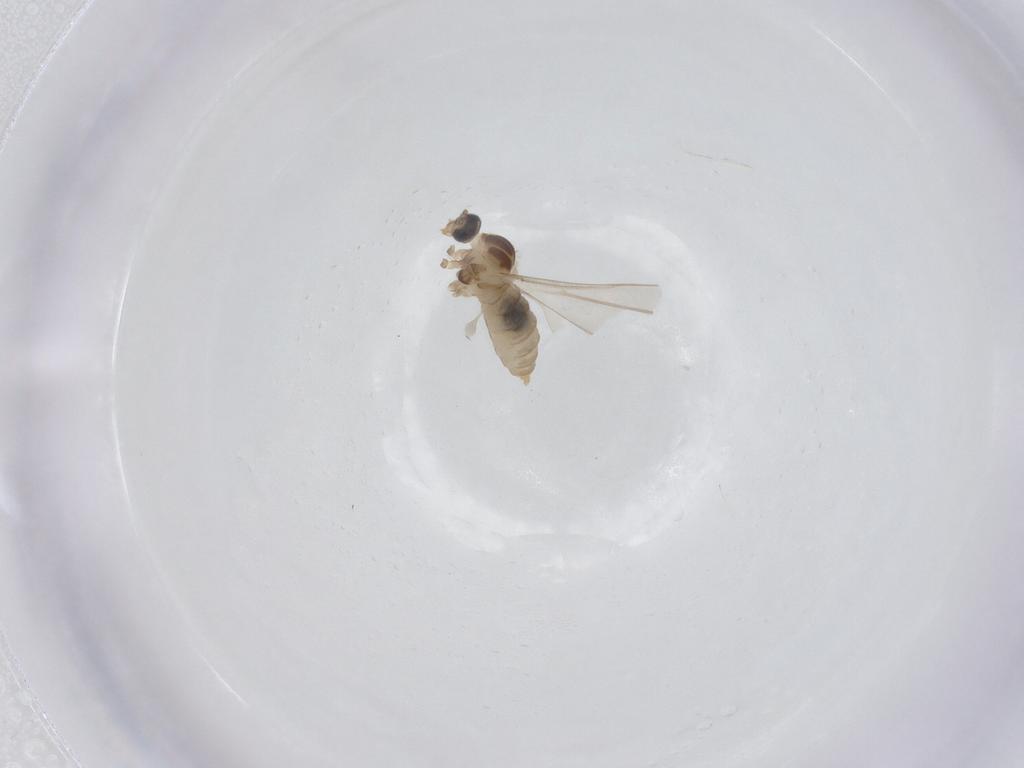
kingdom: Animalia
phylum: Arthropoda
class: Insecta
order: Diptera
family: Cecidomyiidae
